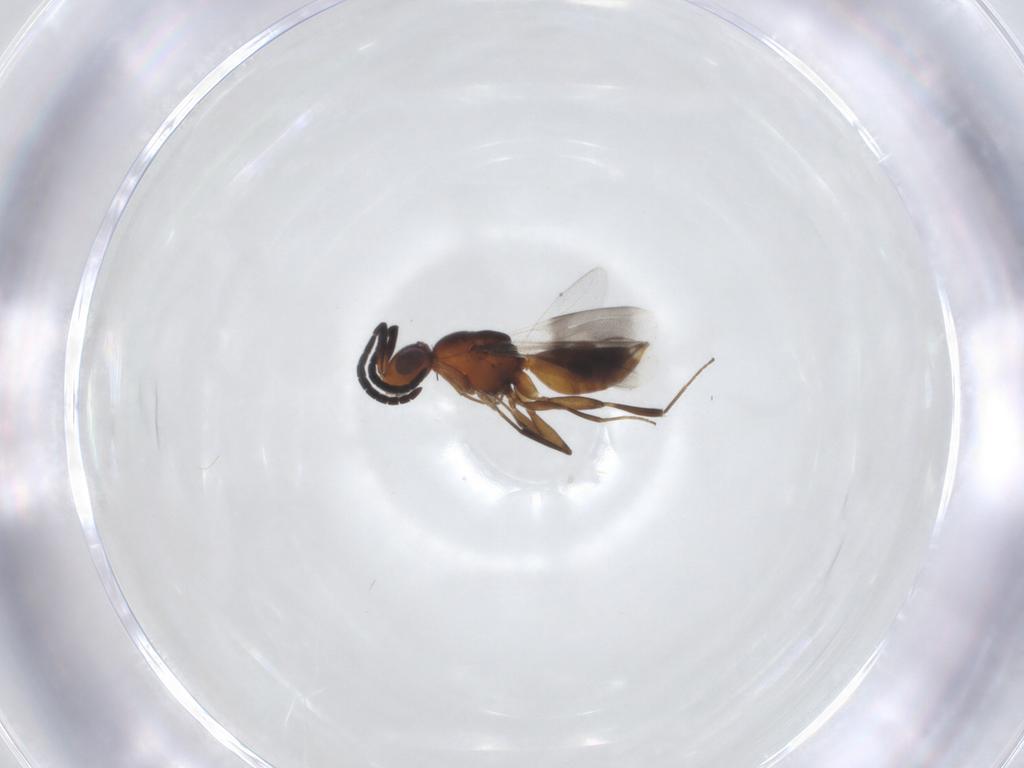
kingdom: Animalia
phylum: Arthropoda
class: Insecta
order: Hymenoptera
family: Megaspilidae
